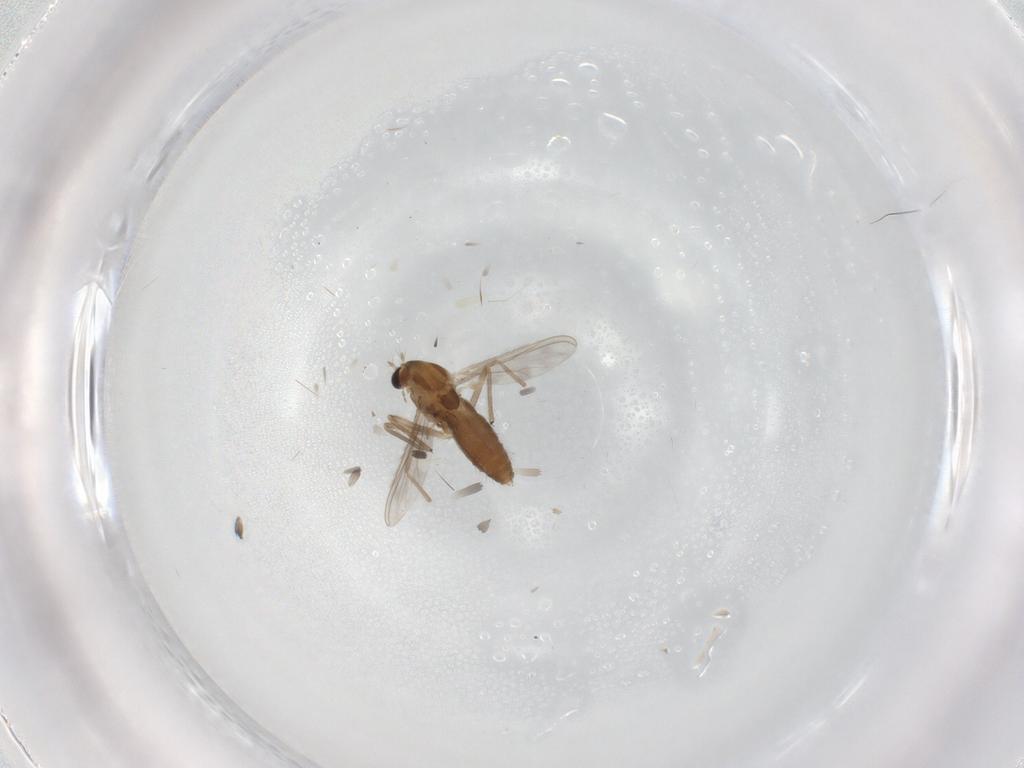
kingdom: Animalia
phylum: Arthropoda
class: Insecta
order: Diptera
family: Chironomidae
